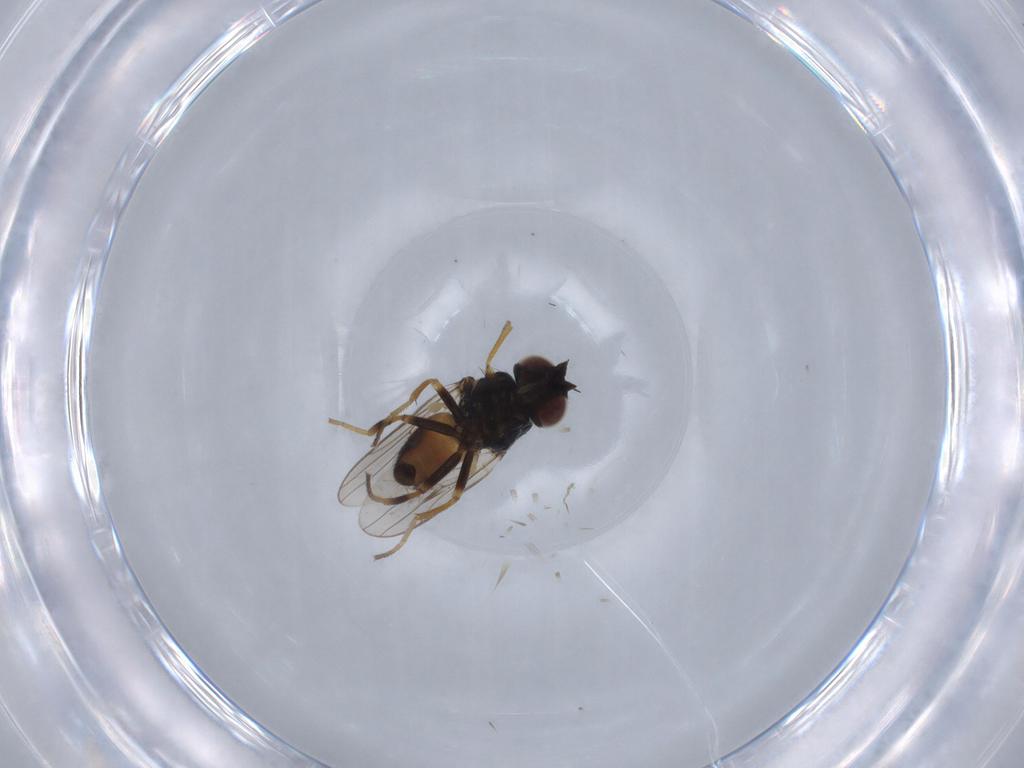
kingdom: Animalia
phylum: Arthropoda
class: Insecta
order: Diptera
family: Chloropidae
